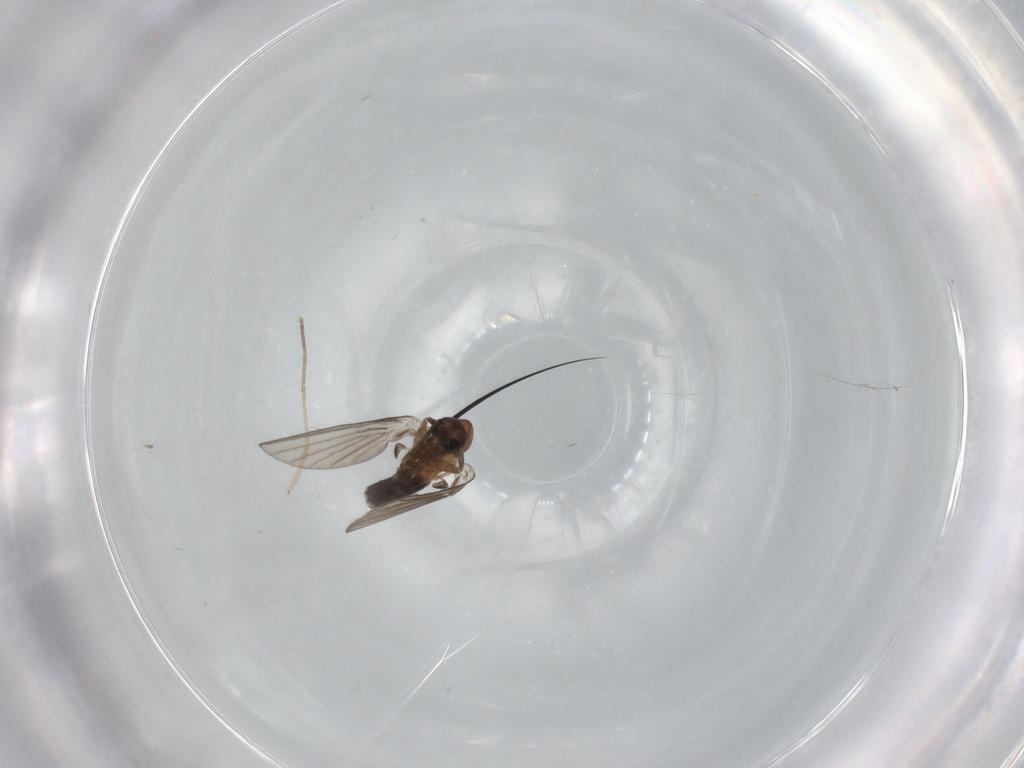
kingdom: Animalia
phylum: Arthropoda
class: Insecta
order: Diptera
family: Psychodidae
